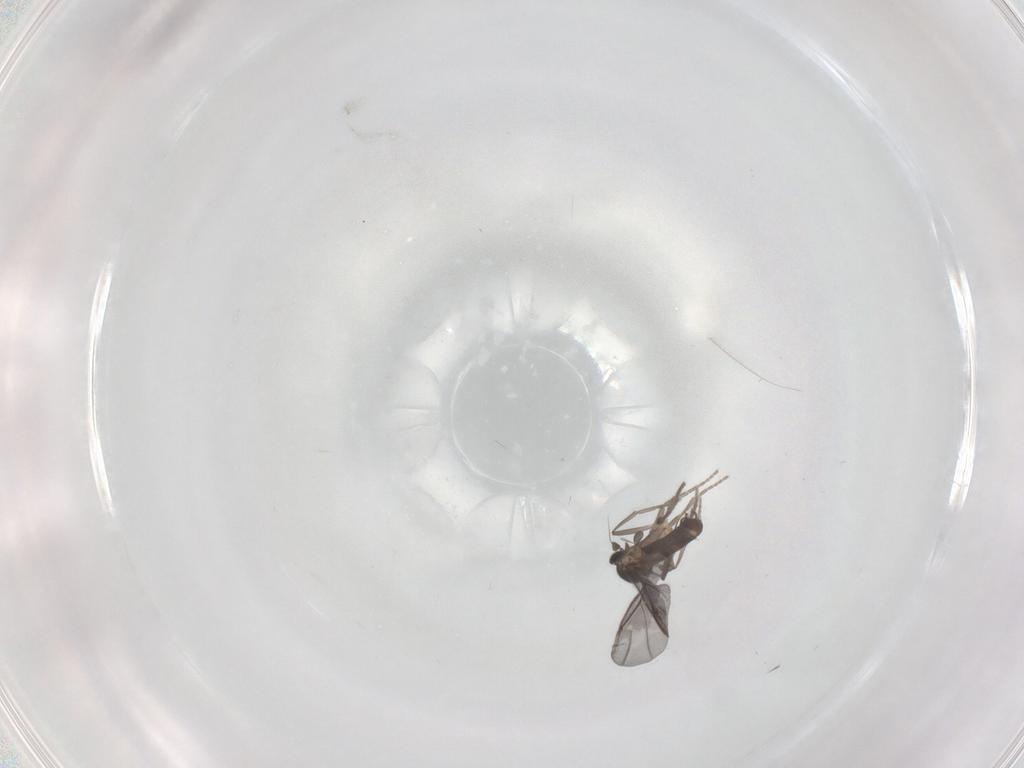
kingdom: Animalia
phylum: Arthropoda
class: Insecta
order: Diptera
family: Phoridae
